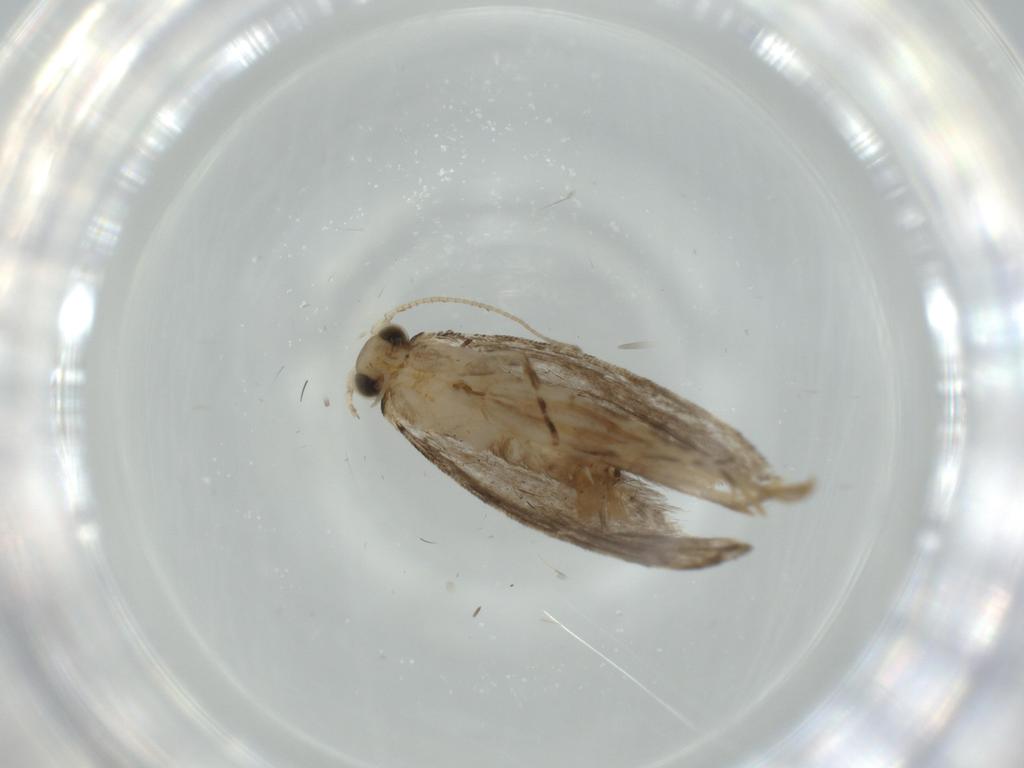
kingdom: Animalia
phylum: Arthropoda
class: Insecta
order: Lepidoptera
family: Tineidae
